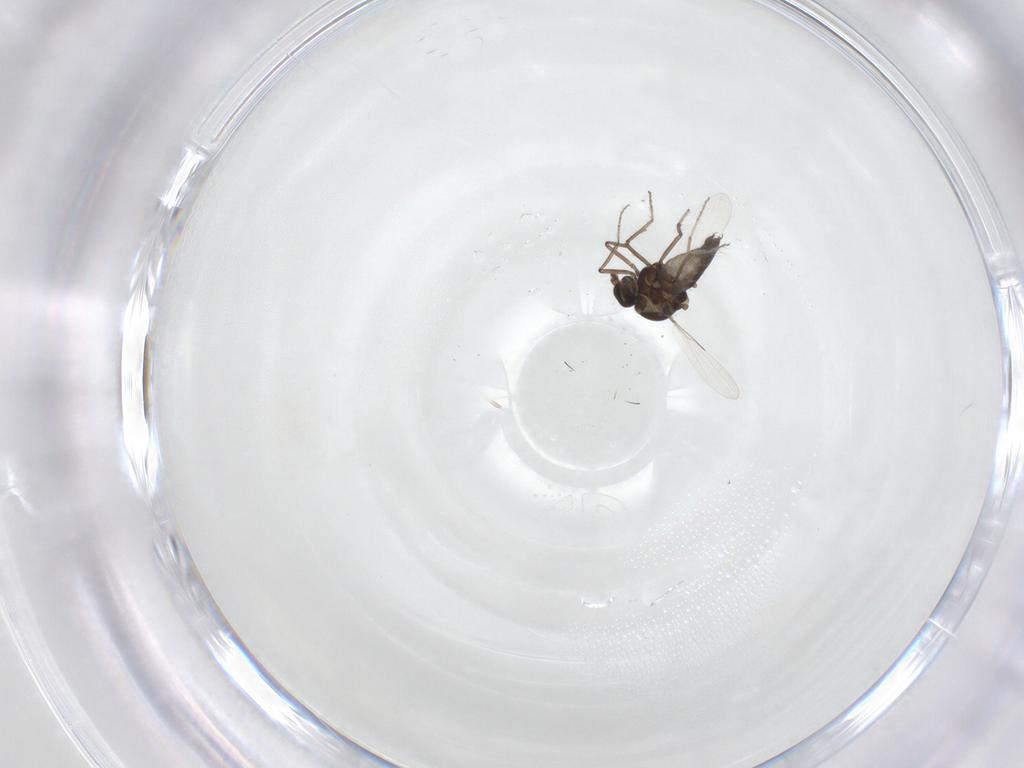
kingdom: Animalia
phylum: Arthropoda
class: Insecta
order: Diptera
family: Ceratopogonidae
